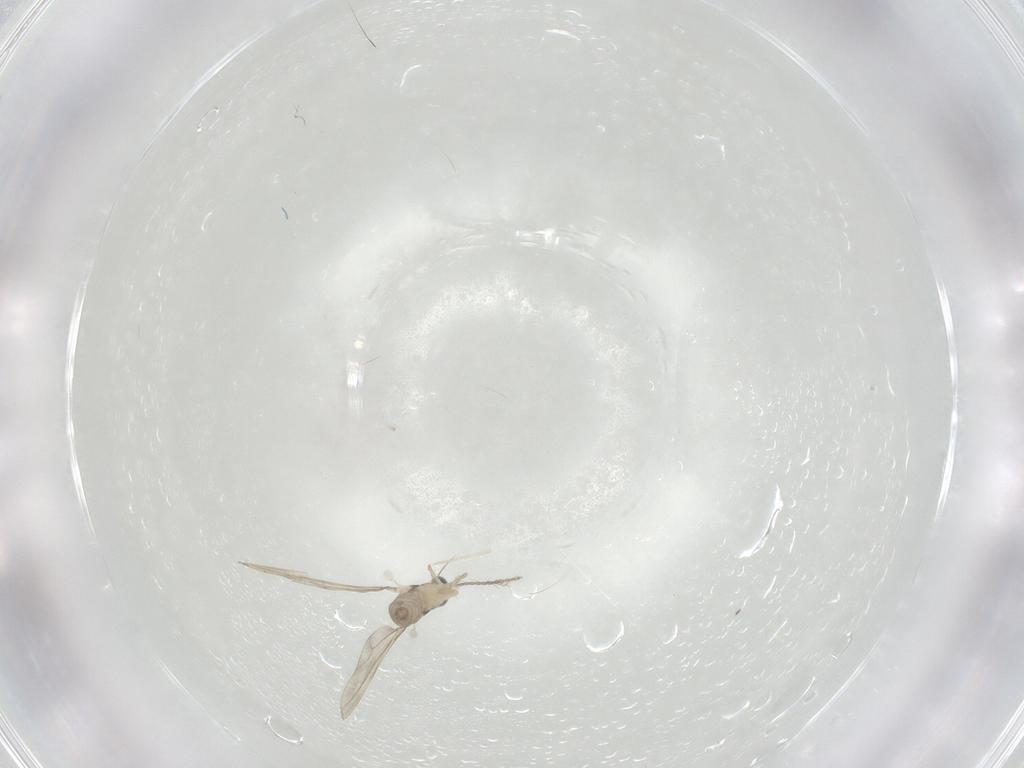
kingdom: Animalia
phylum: Arthropoda
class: Insecta
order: Diptera
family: Cecidomyiidae
